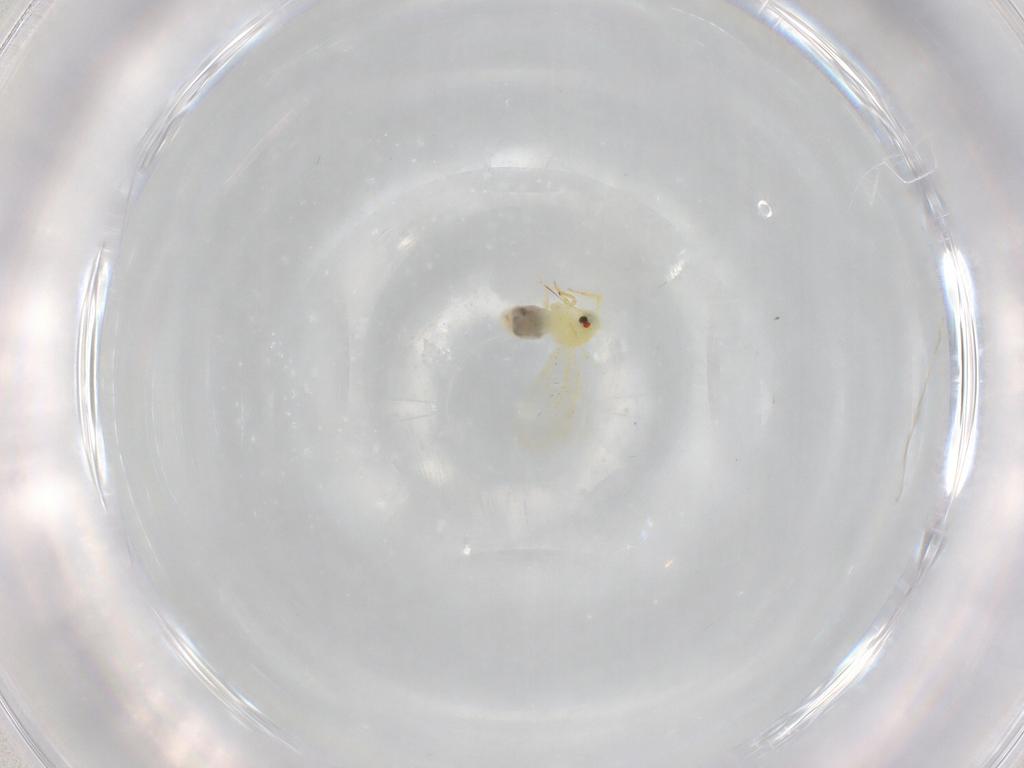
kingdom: Animalia
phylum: Arthropoda
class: Insecta
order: Hemiptera
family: Aleyrodidae
